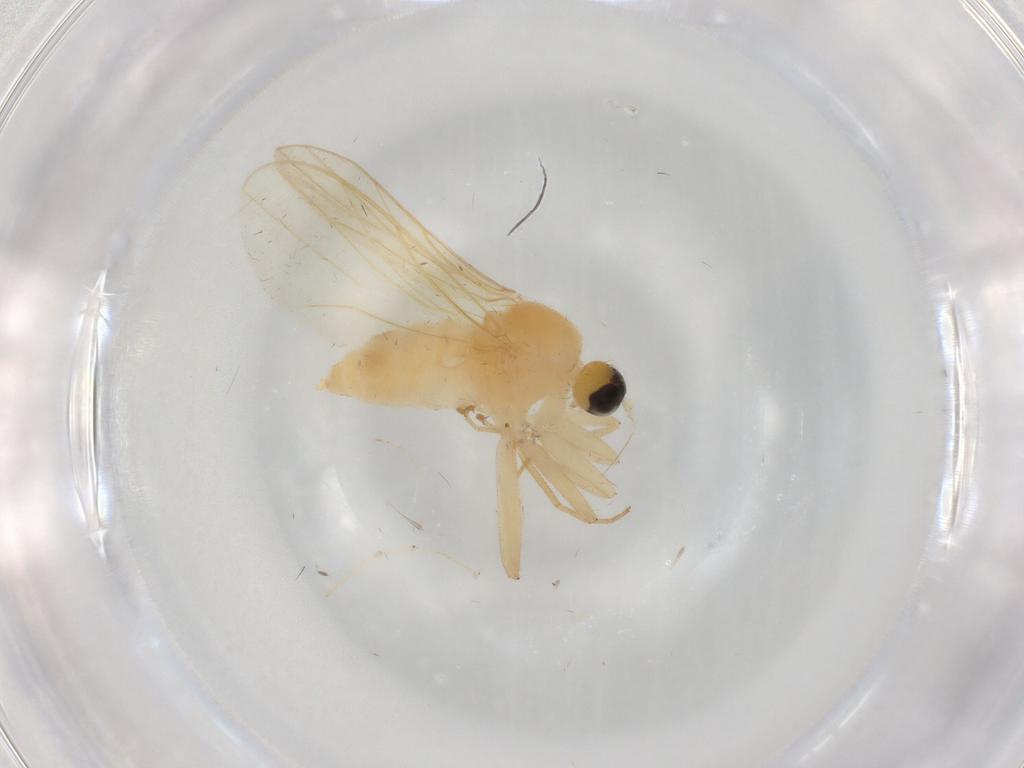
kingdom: Animalia
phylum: Arthropoda
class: Insecta
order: Diptera
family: Hybotidae
